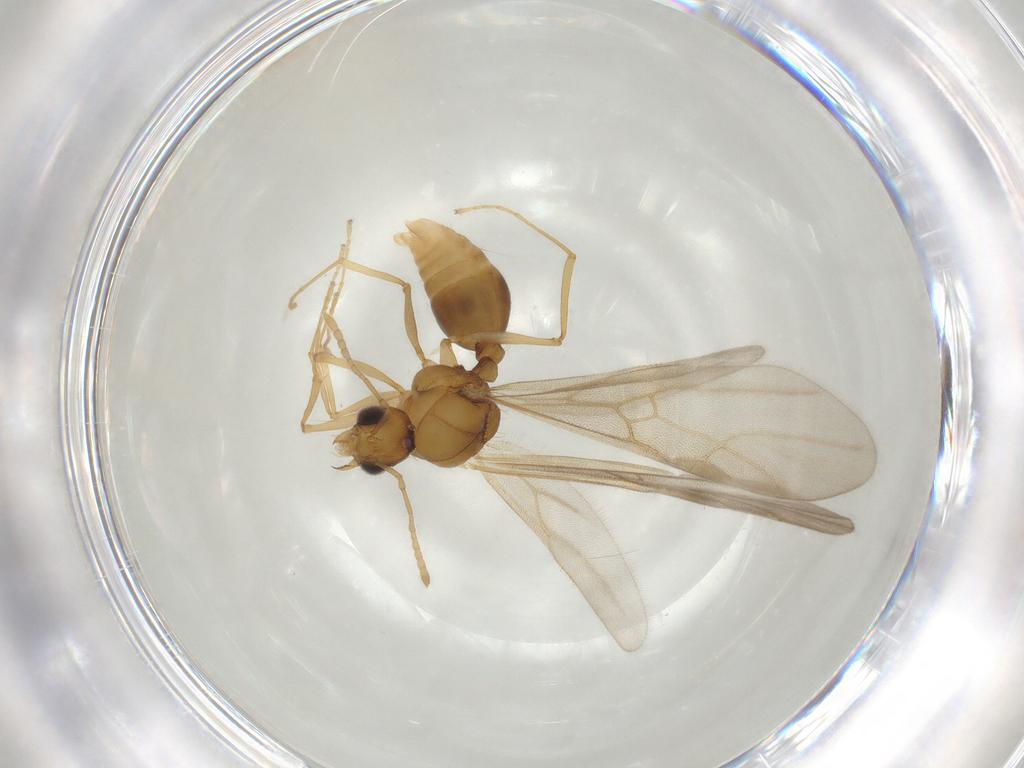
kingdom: Animalia
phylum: Arthropoda
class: Insecta
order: Hymenoptera
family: Formicidae
